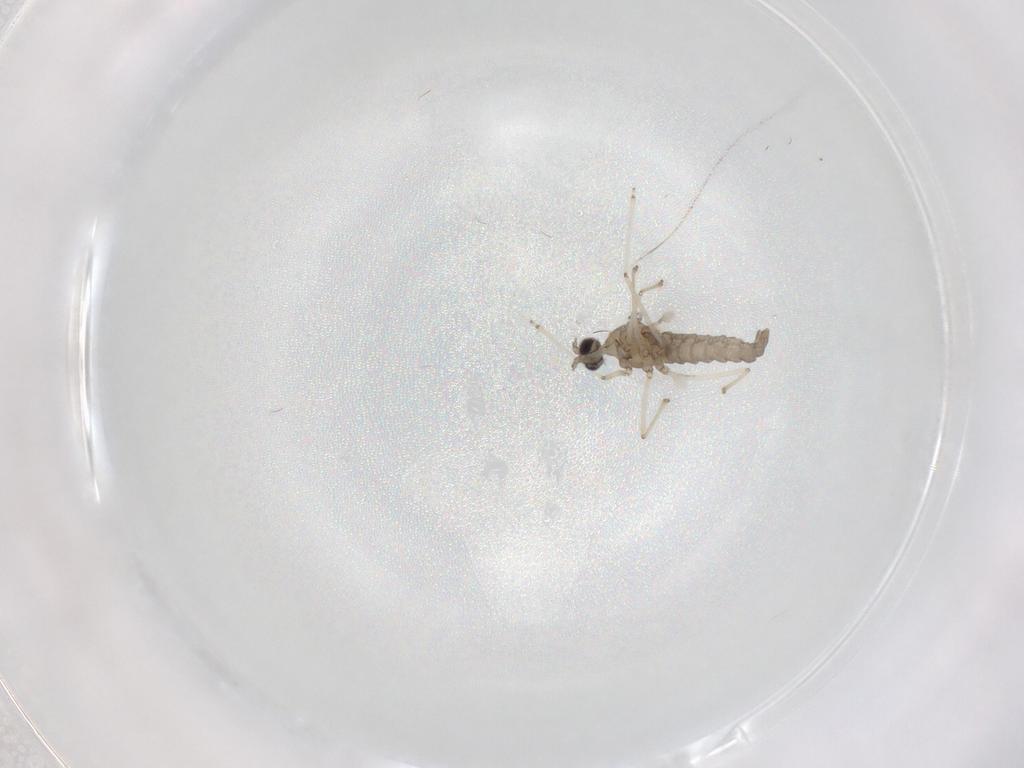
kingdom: Animalia
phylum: Arthropoda
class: Insecta
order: Diptera
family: Cecidomyiidae
